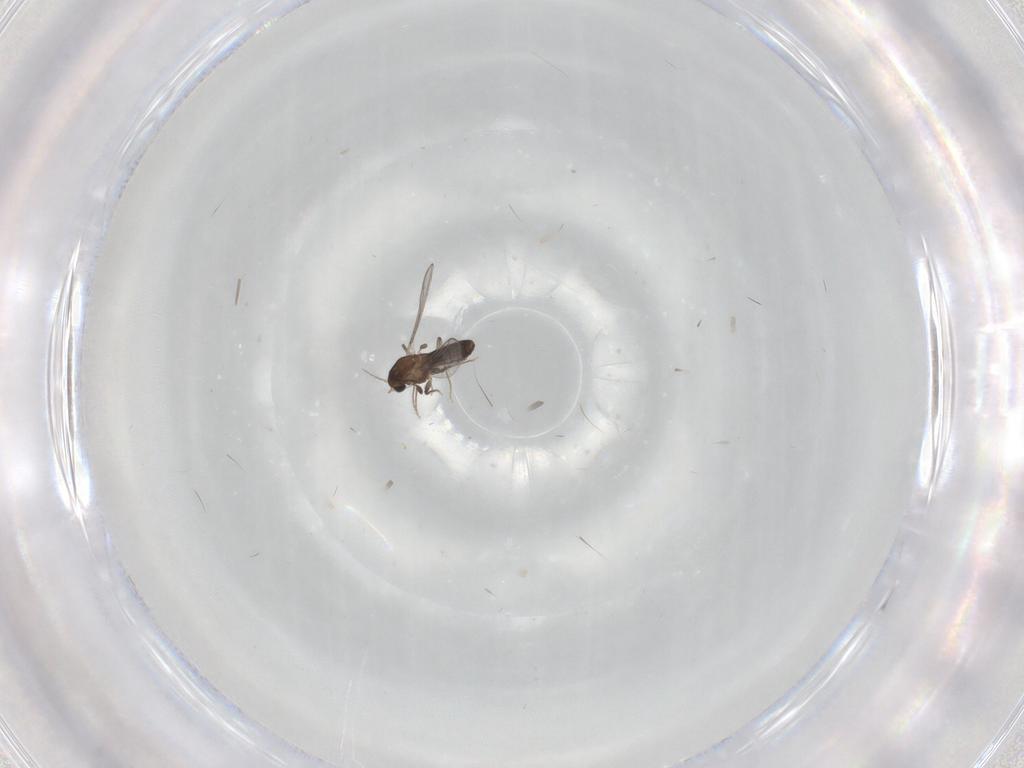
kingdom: Animalia
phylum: Arthropoda
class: Insecta
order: Diptera
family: Chironomidae
